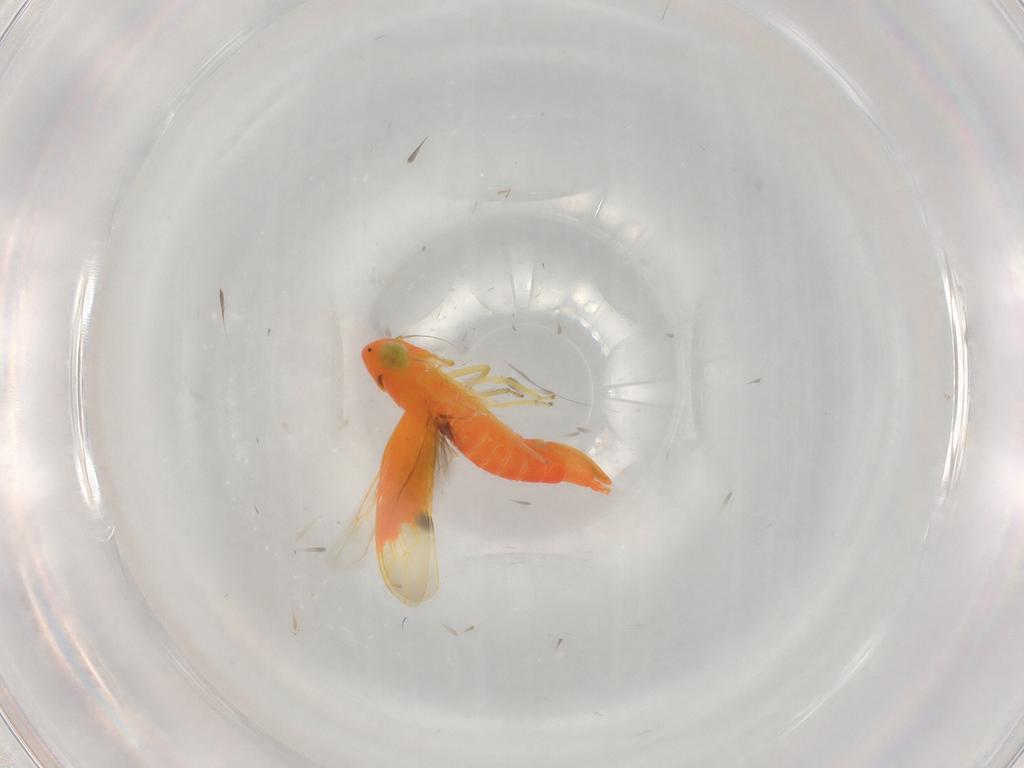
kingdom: Animalia
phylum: Arthropoda
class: Insecta
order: Hemiptera
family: Cicadellidae
